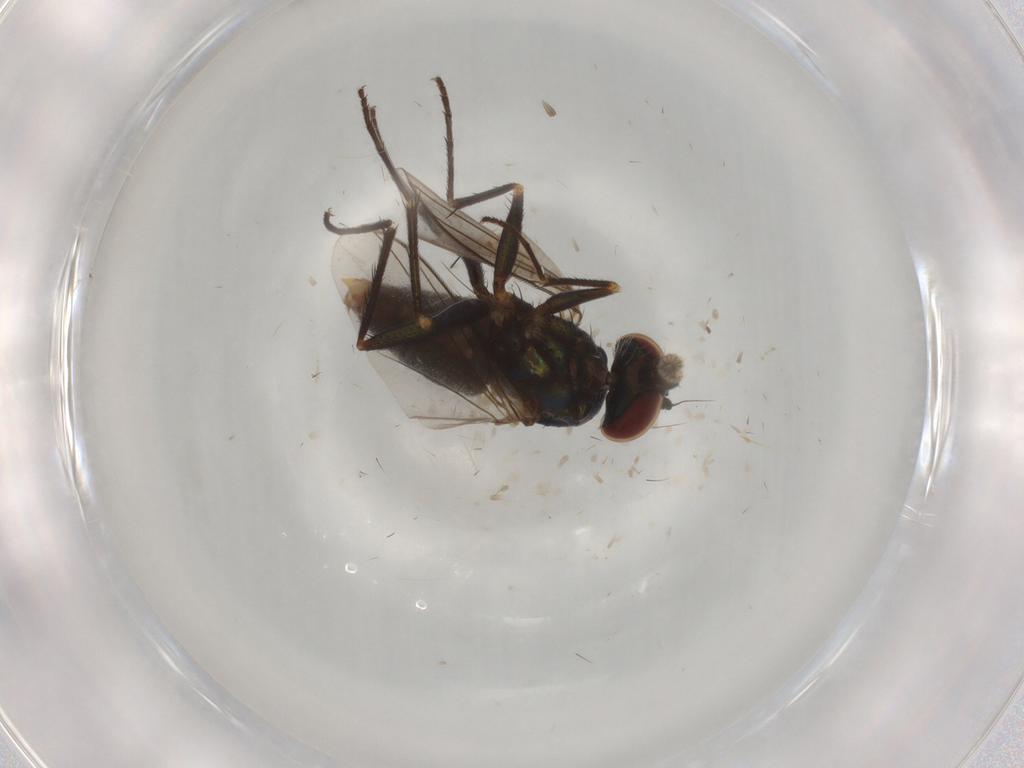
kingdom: Animalia
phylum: Arthropoda
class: Insecta
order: Diptera
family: Dolichopodidae
